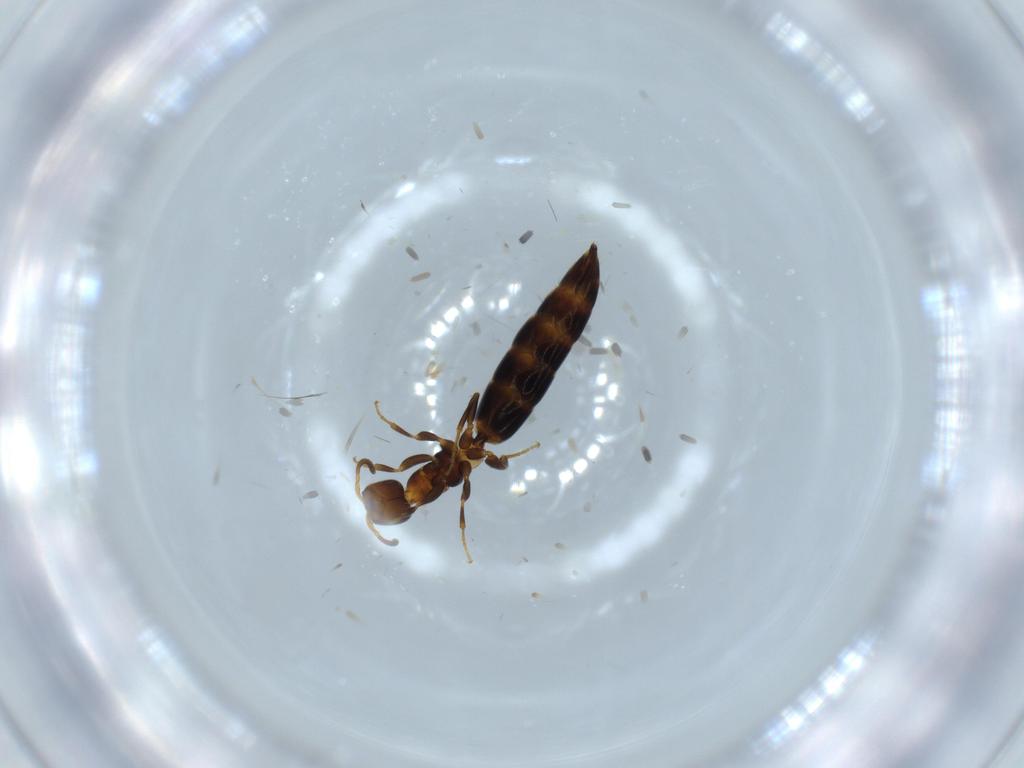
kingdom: Animalia
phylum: Arthropoda
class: Insecta
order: Hymenoptera
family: Bethylidae
